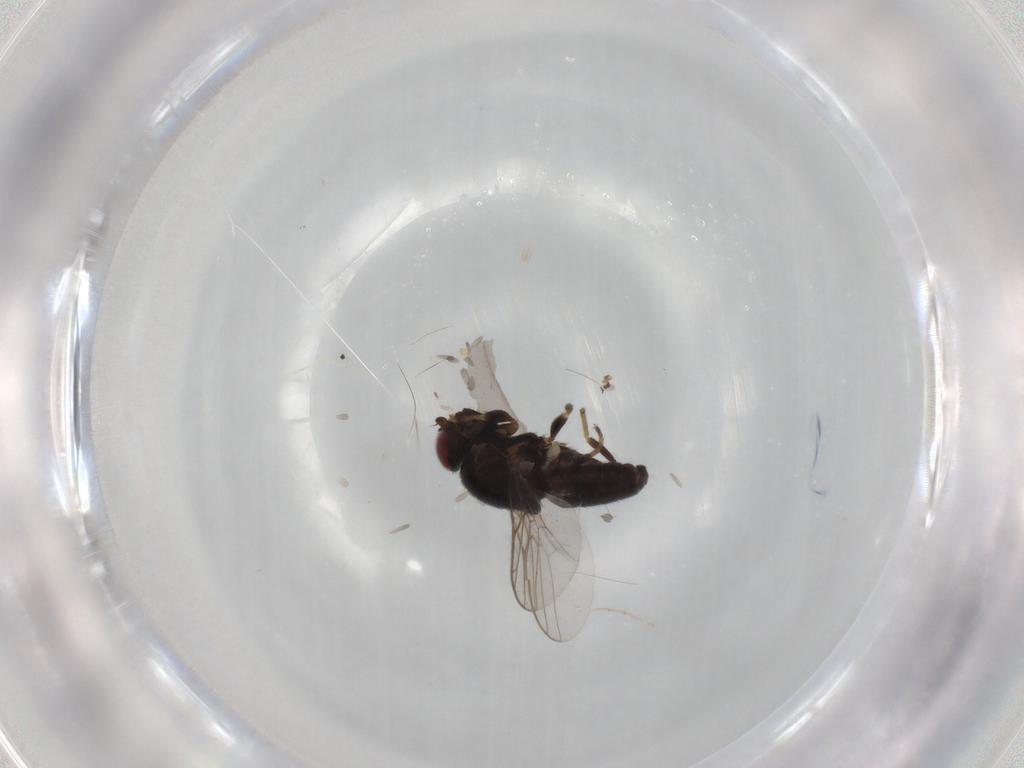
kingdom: Animalia
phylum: Arthropoda
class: Insecta
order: Diptera
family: Chloropidae
